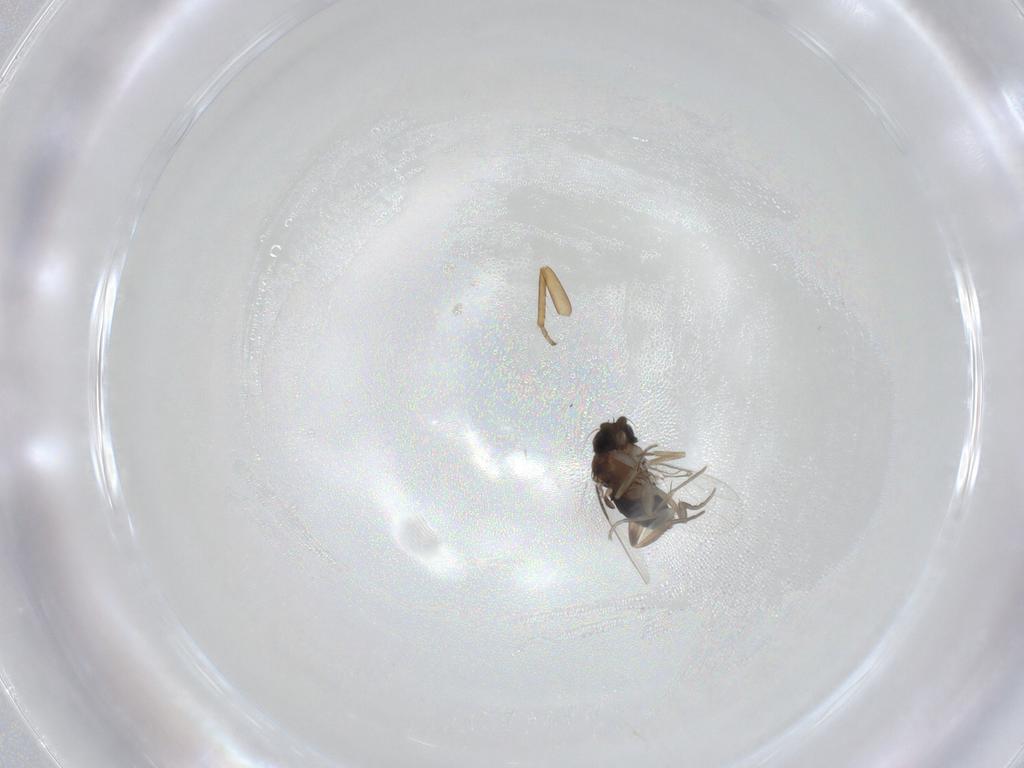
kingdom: Animalia
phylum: Arthropoda
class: Insecta
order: Diptera
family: Phoridae
